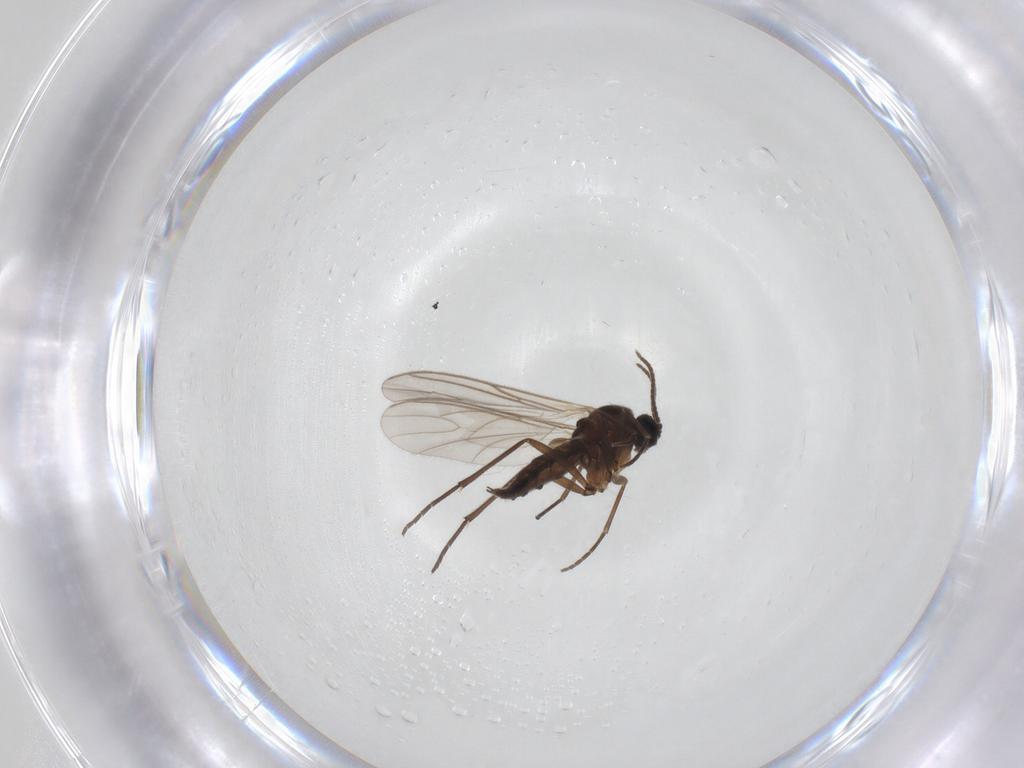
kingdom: Animalia
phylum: Arthropoda
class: Insecta
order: Diptera
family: Sciaridae
